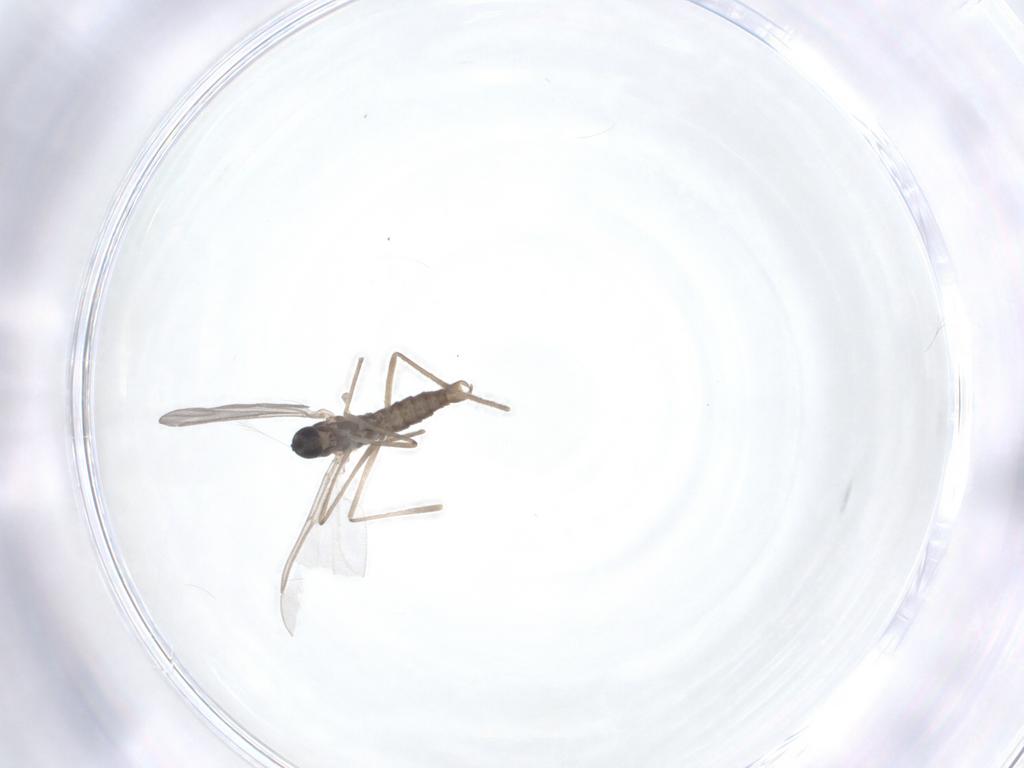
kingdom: Animalia
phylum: Arthropoda
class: Insecta
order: Diptera
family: Cecidomyiidae
